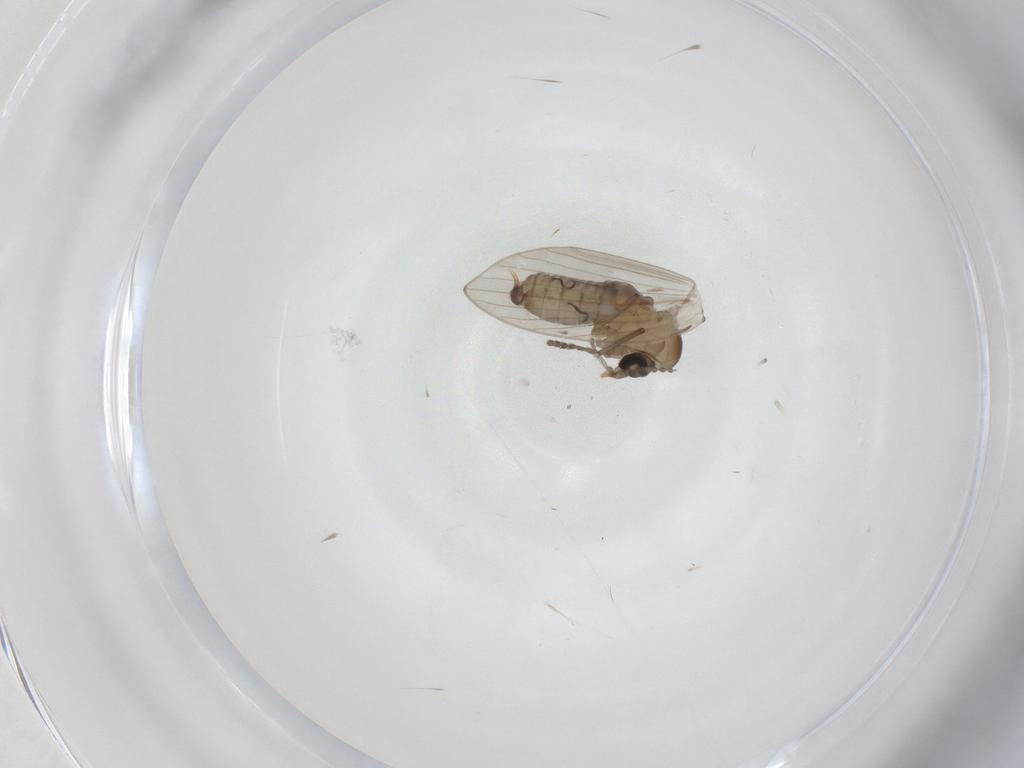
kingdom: Animalia
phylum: Arthropoda
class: Insecta
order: Diptera
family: Psychodidae
